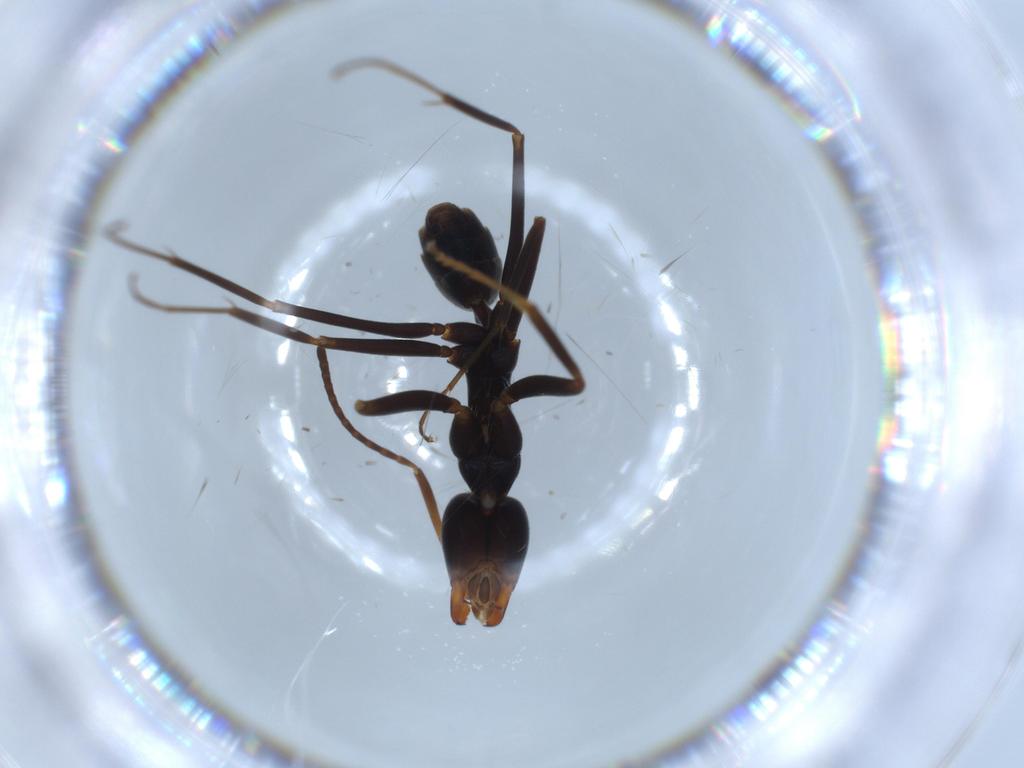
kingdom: Animalia
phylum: Arthropoda
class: Insecta
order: Hymenoptera
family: Formicidae
